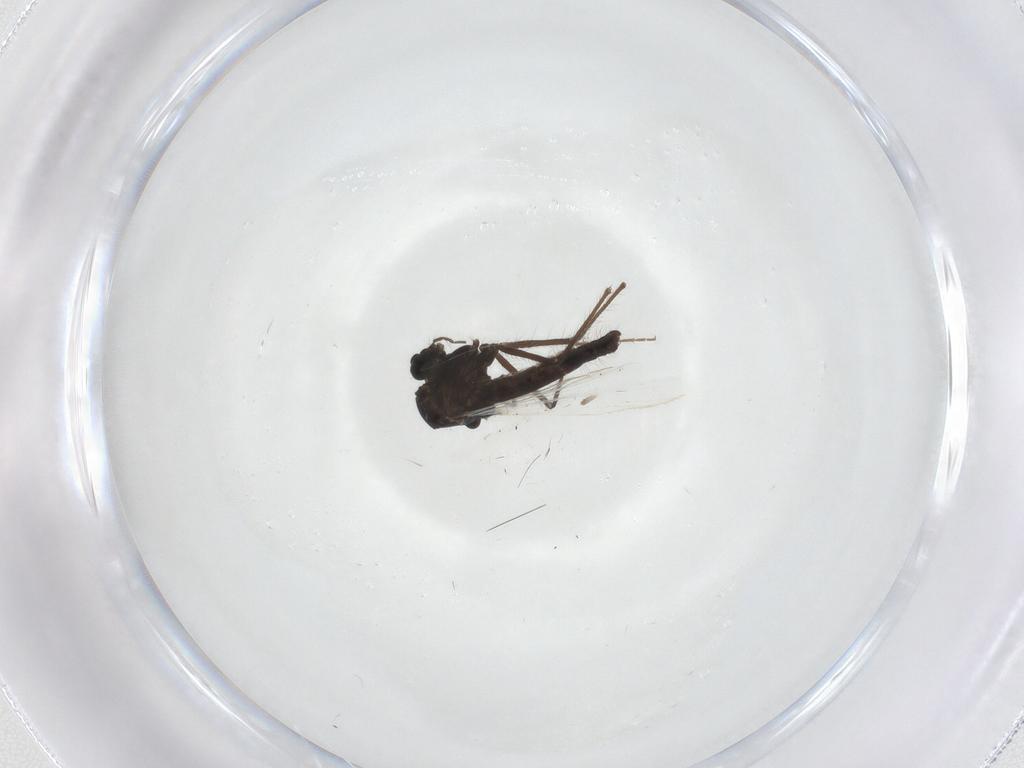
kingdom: Animalia
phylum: Arthropoda
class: Insecta
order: Diptera
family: Chironomidae
